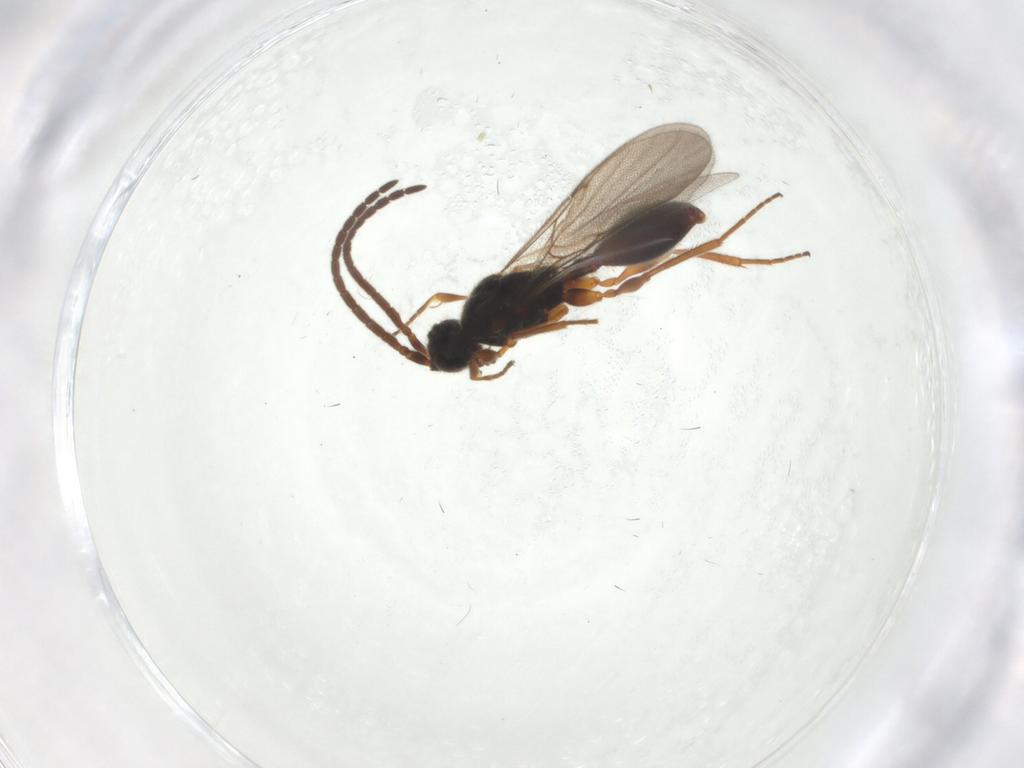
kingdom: Animalia
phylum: Arthropoda
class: Insecta
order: Hymenoptera
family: Diapriidae
